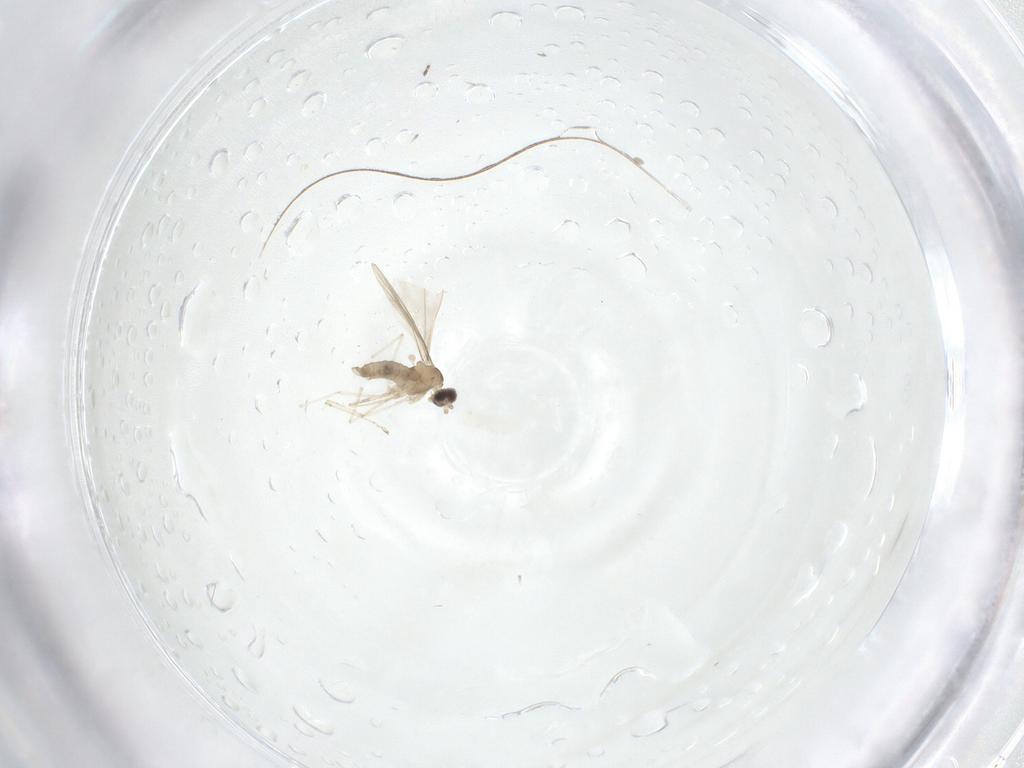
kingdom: Animalia
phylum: Arthropoda
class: Insecta
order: Diptera
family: Ceratopogonidae
